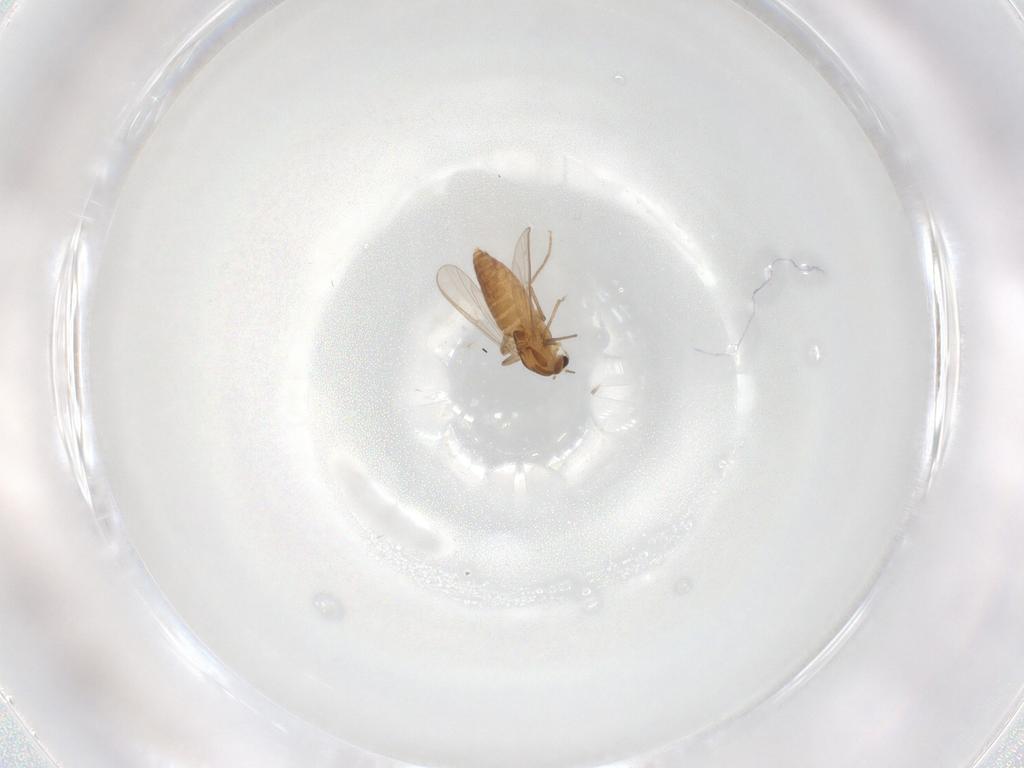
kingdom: Animalia
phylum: Arthropoda
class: Insecta
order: Diptera
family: Chironomidae
